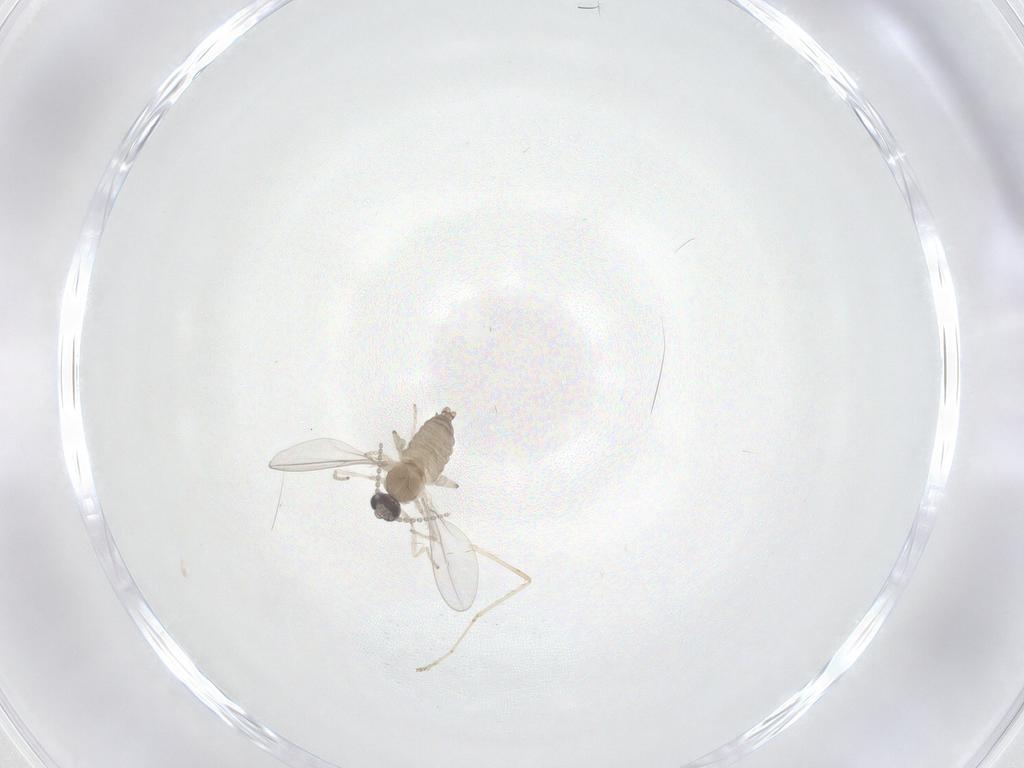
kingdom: Animalia
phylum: Arthropoda
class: Insecta
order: Diptera
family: Cecidomyiidae
